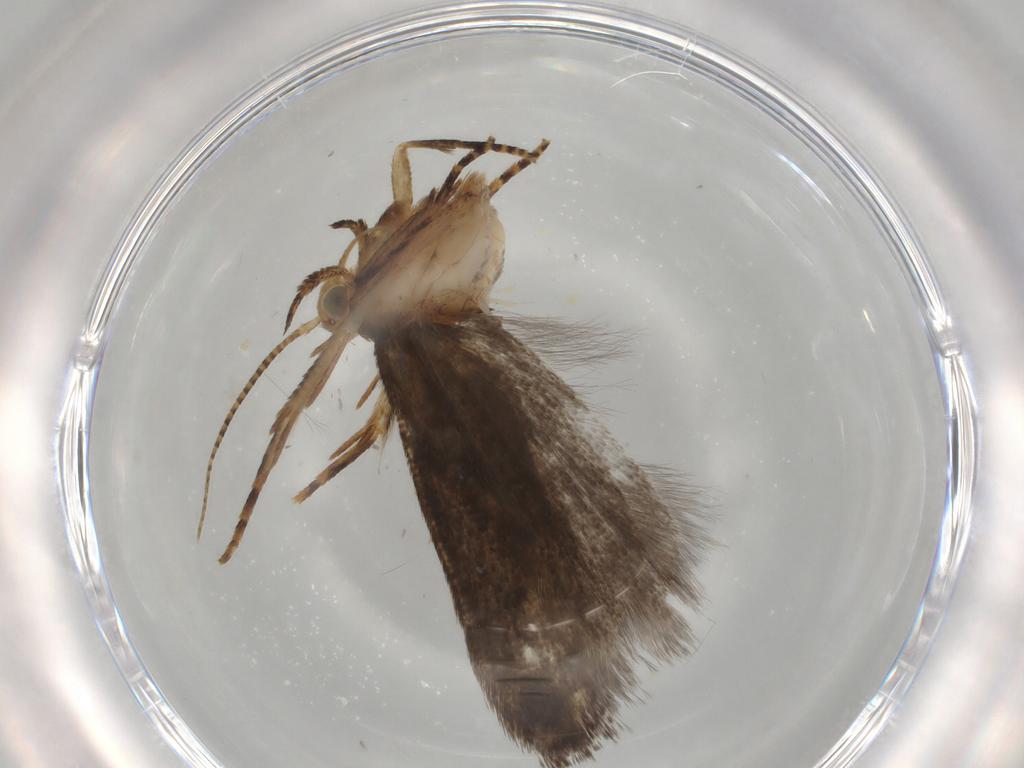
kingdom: Animalia
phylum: Arthropoda
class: Insecta
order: Lepidoptera
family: Gelechiidae
